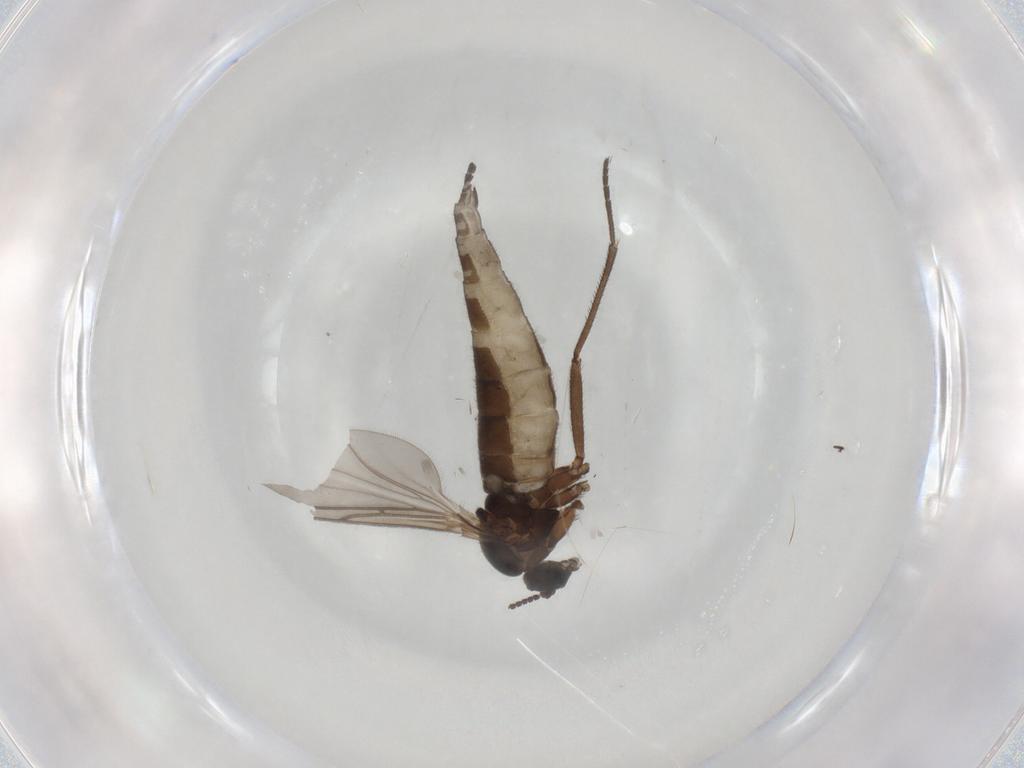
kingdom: Animalia
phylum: Arthropoda
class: Insecta
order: Diptera
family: Sciaridae
